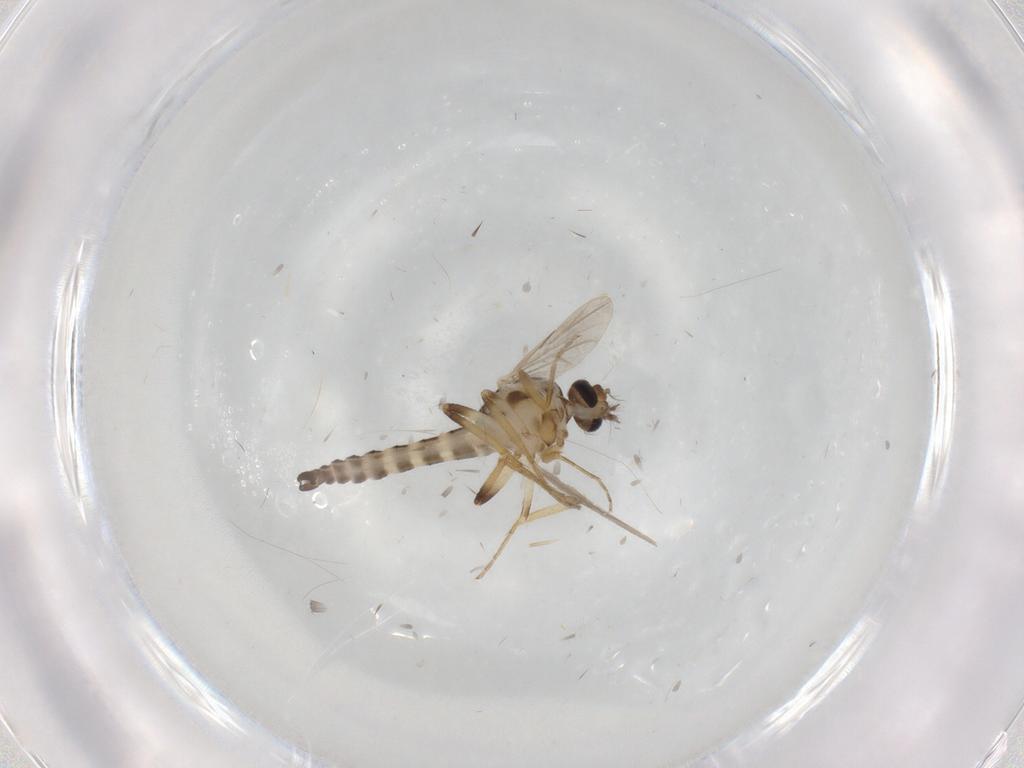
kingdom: Animalia
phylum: Arthropoda
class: Insecta
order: Diptera
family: Ceratopogonidae
